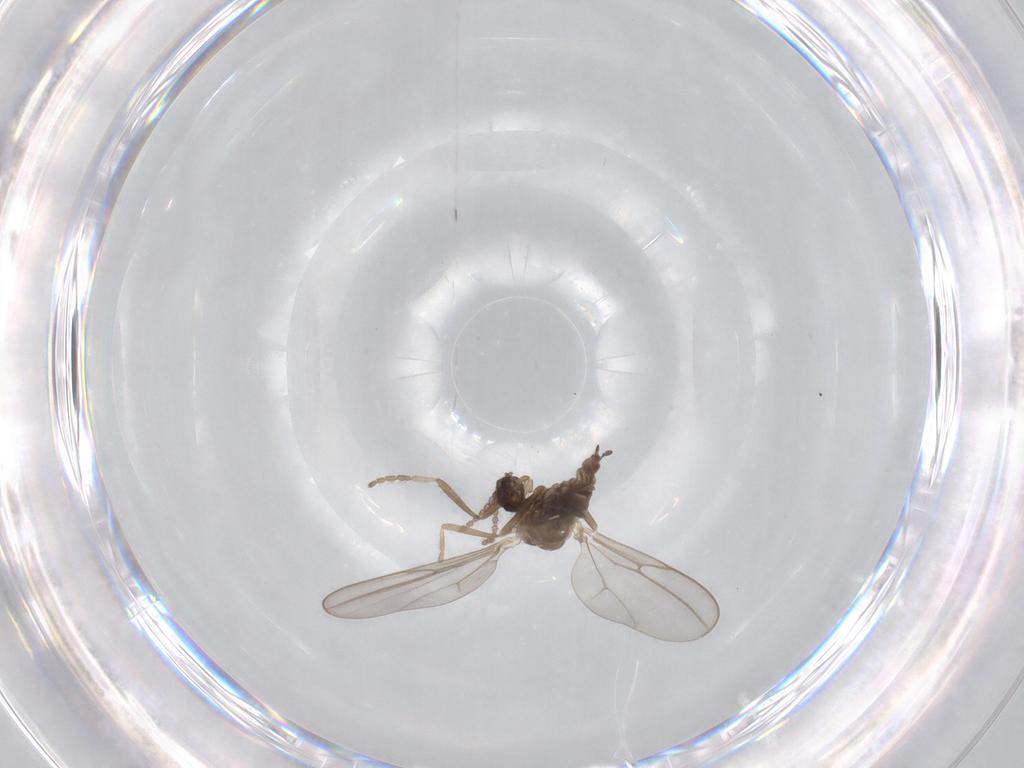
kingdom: Animalia
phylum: Arthropoda
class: Insecta
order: Diptera
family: Cecidomyiidae
